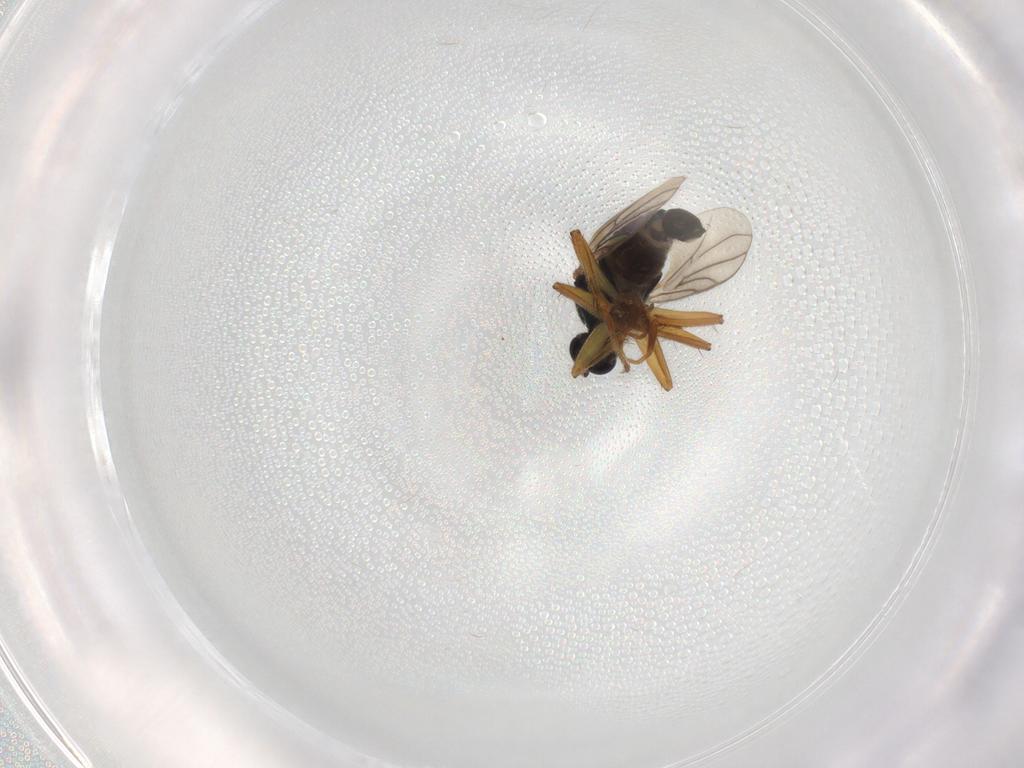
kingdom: Animalia
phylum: Arthropoda
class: Insecta
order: Diptera
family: Hybotidae
